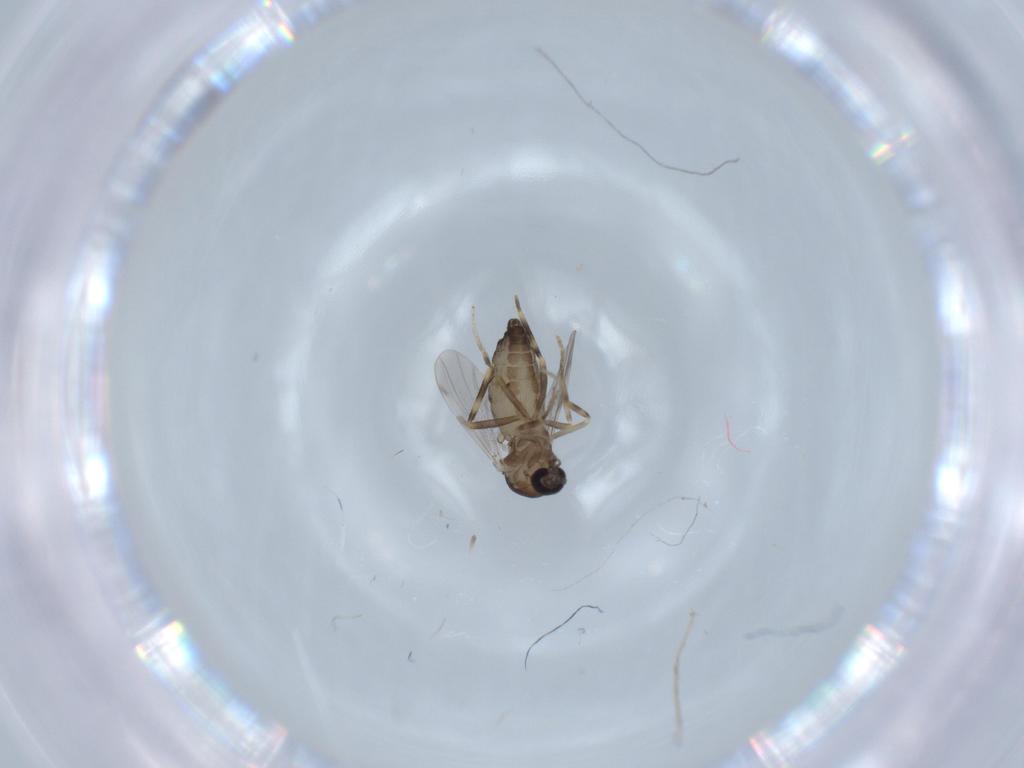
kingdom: Animalia
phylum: Arthropoda
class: Insecta
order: Diptera
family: Ceratopogonidae
